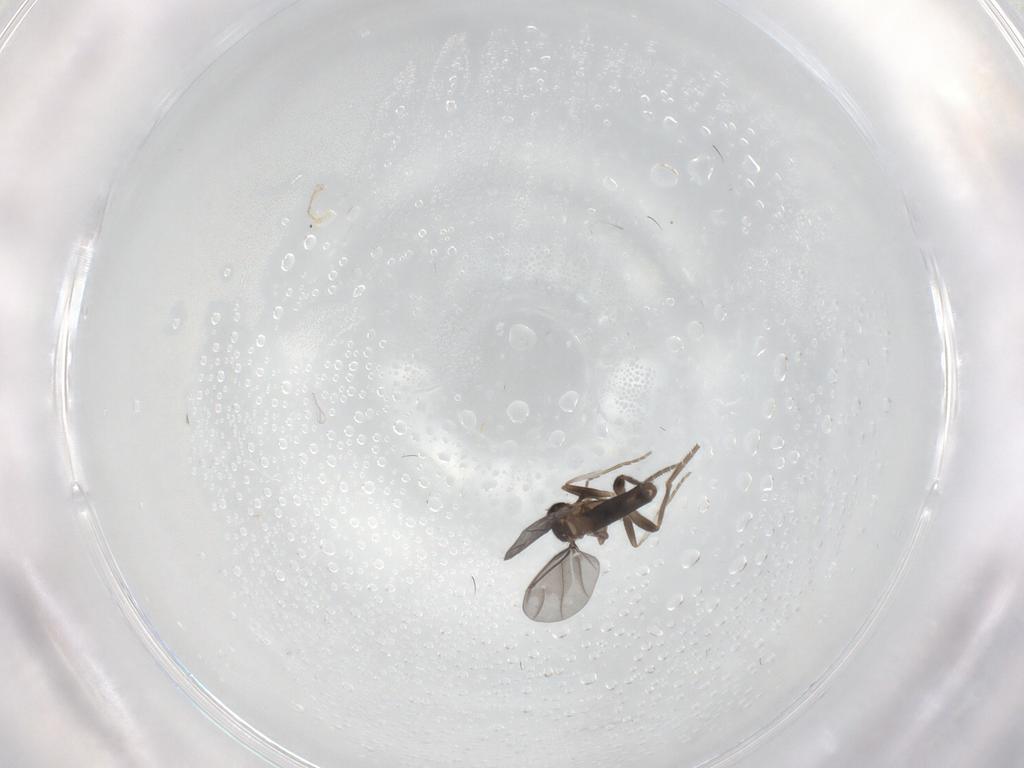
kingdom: Animalia
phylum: Arthropoda
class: Insecta
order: Diptera
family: Phoridae
